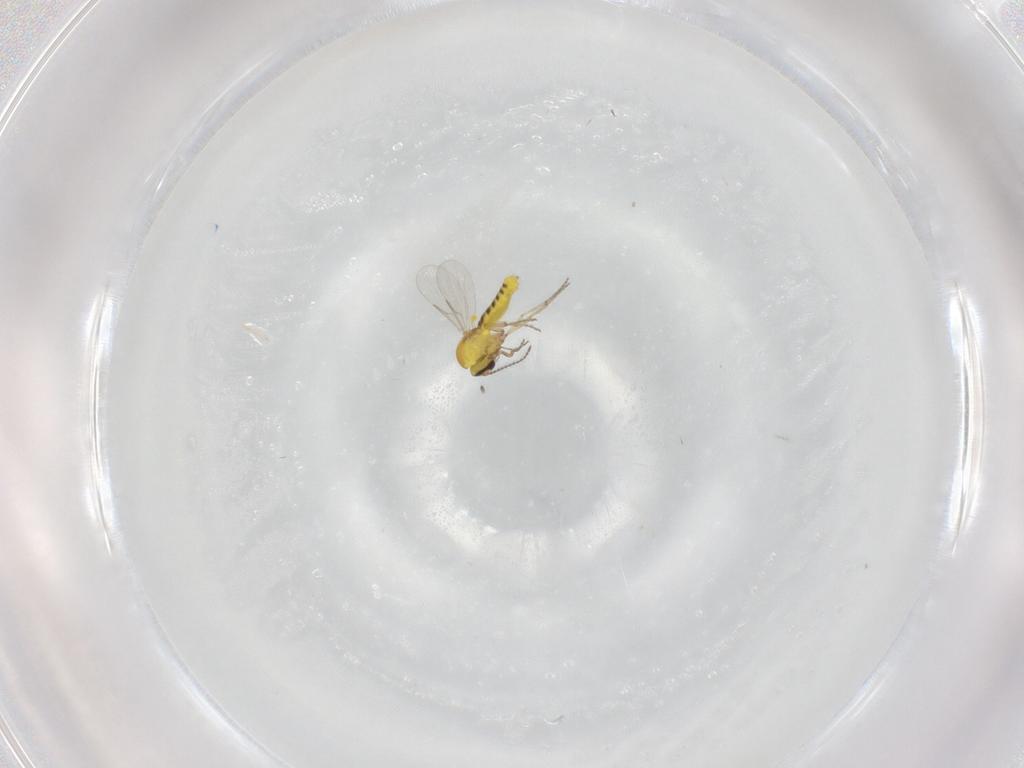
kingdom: Animalia
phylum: Arthropoda
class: Insecta
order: Diptera
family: Ceratopogonidae
